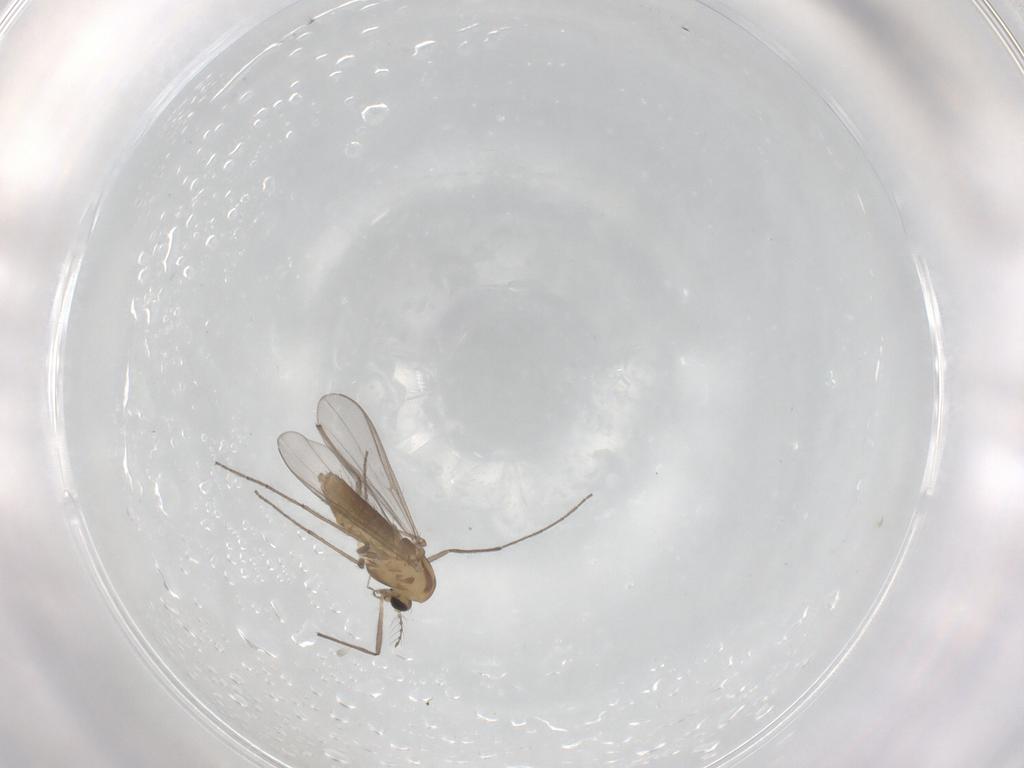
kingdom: Animalia
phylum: Arthropoda
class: Insecta
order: Diptera
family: Chironomidae
